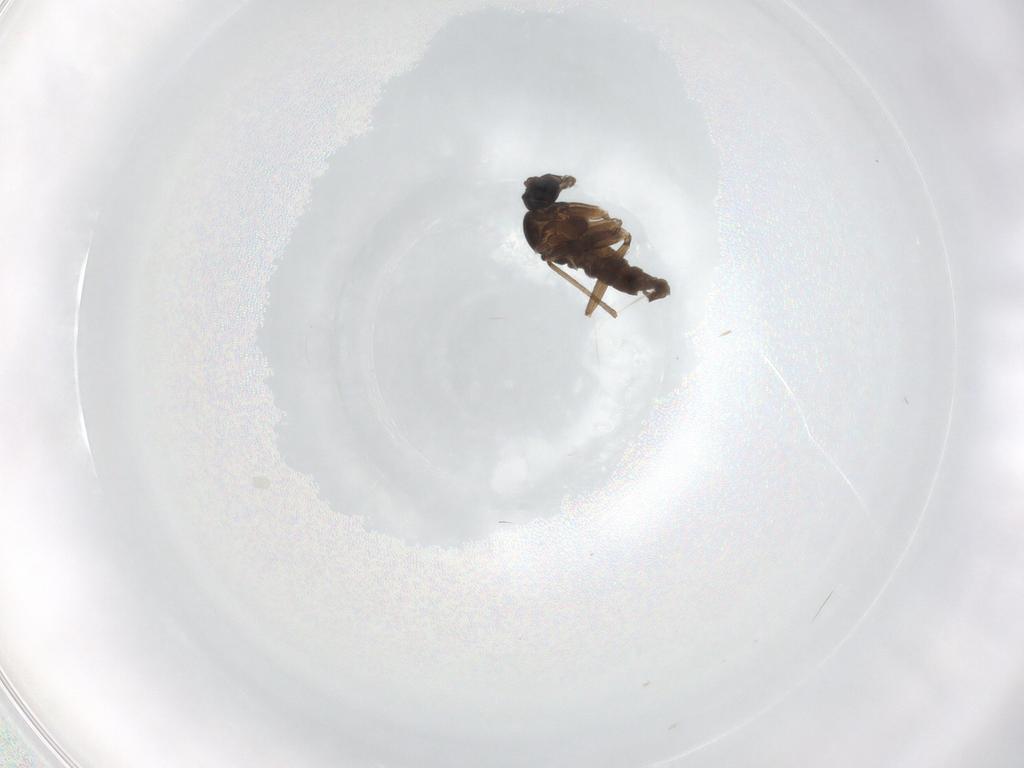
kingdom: Animalia
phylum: Arthropoda
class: Insecta
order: Diptera
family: Sciaridae
